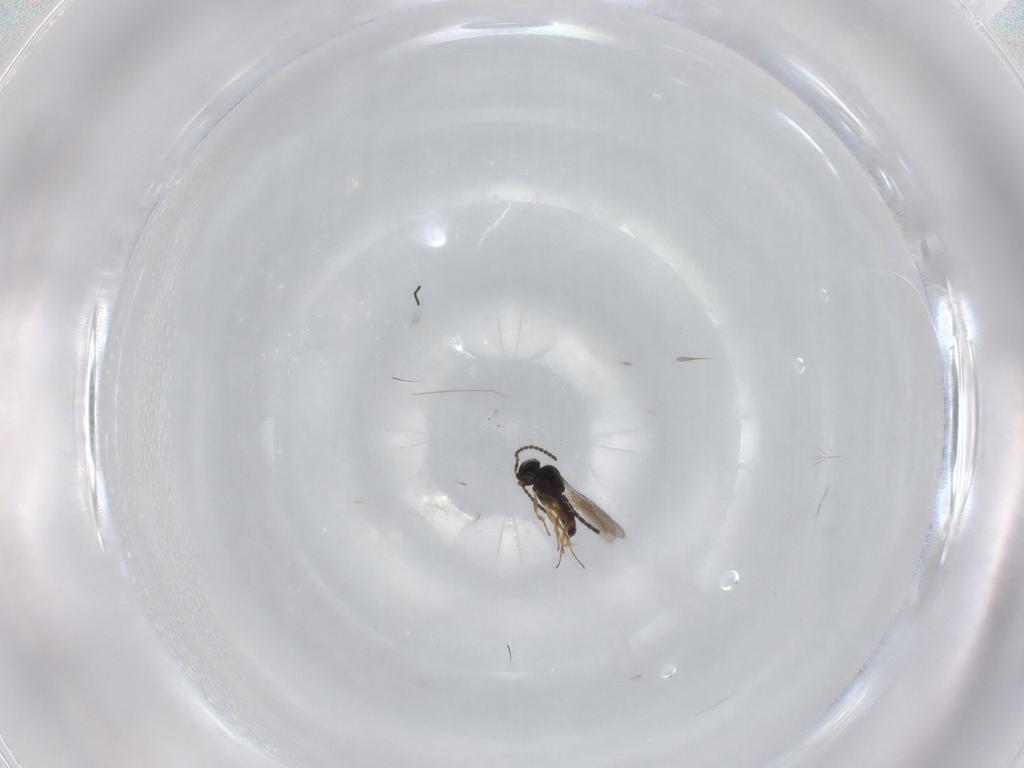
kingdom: Animalia
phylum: Arthropoda
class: Insecta
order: Hymenoptera
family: Scelionidae
